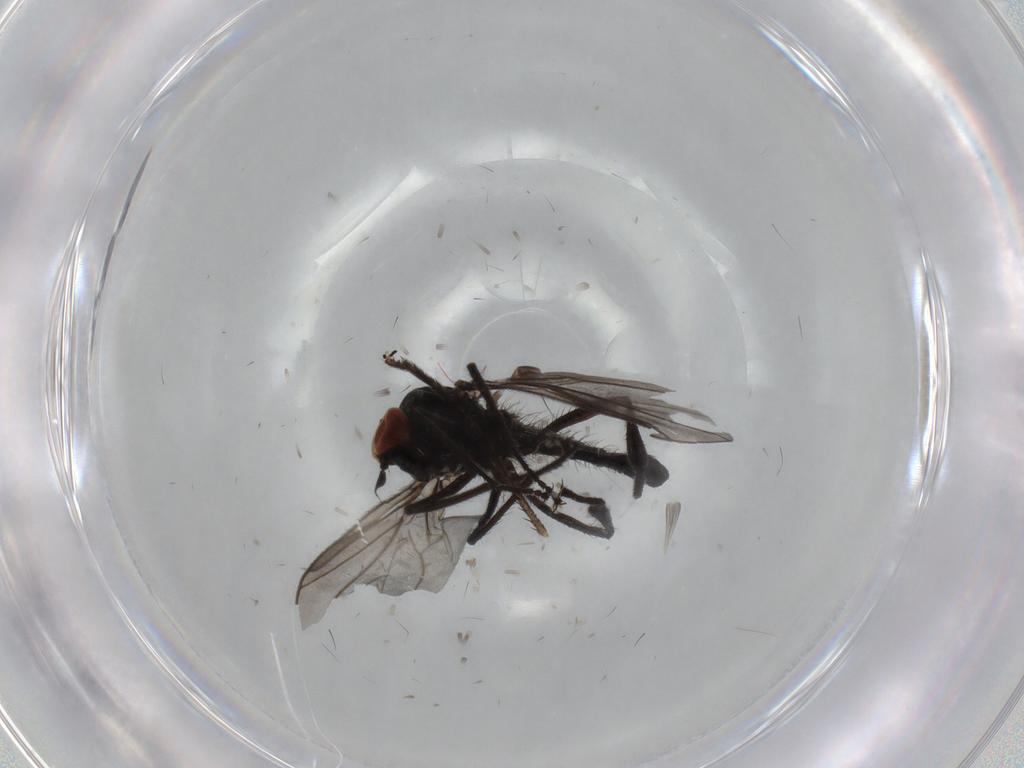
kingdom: Animalia
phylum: Arthropoda
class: Insecta
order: Diptera
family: Hybotidae
